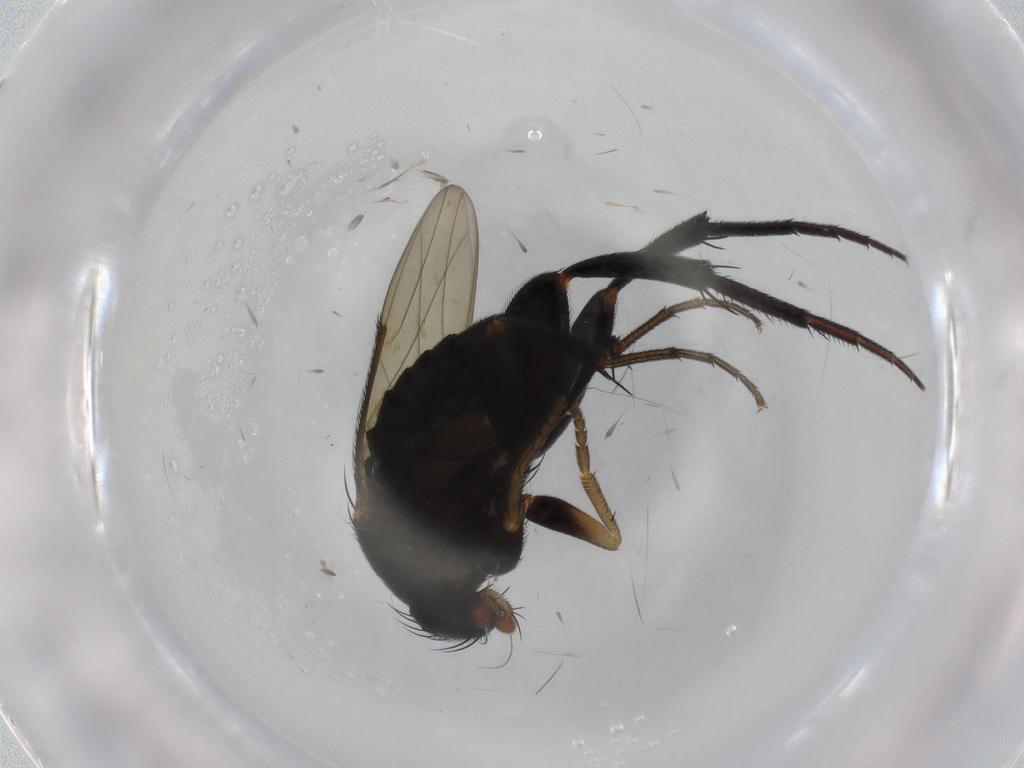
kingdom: Animalia
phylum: Arthropoda
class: Insecta
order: Diptera
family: Phoridae
